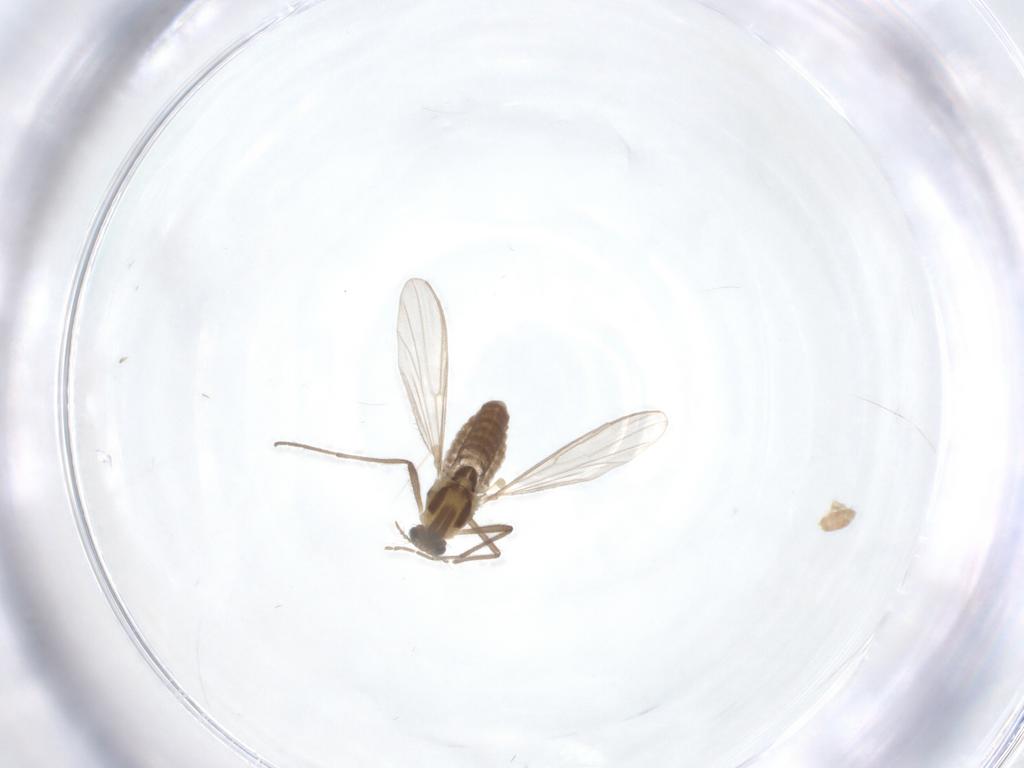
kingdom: Animalia
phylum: Arthropoda
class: Insecta
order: Diptera
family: Chironomidae
